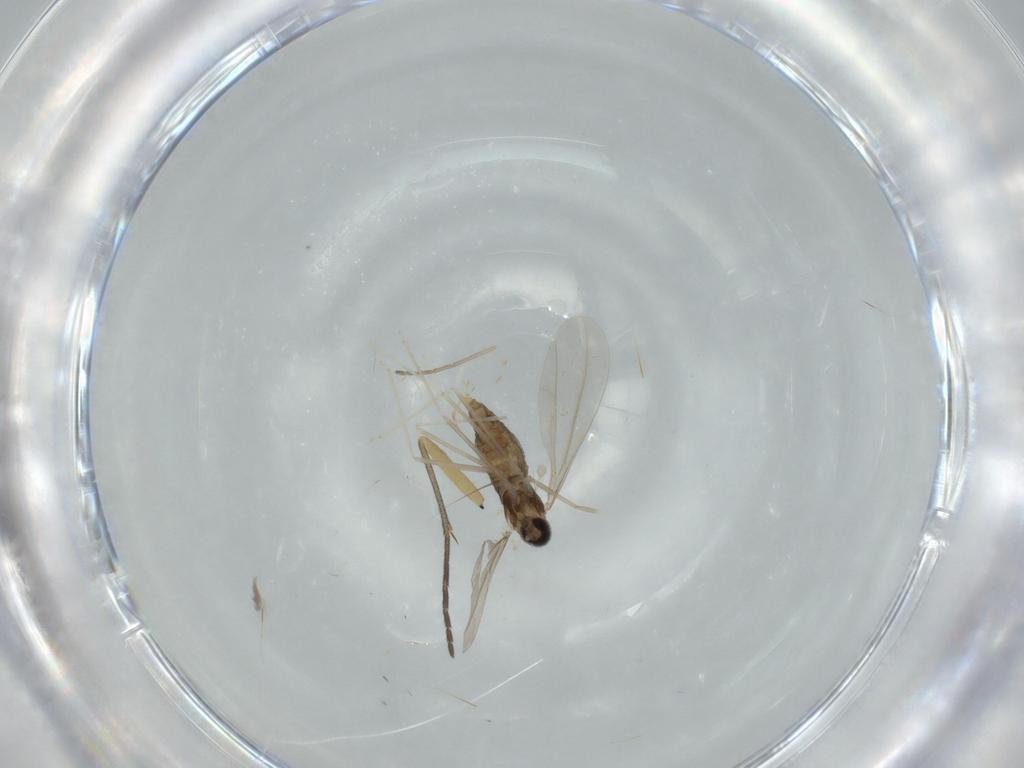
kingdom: Animalia
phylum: Arthropoda
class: Insecta
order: Diptera
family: Cecidomyiidae
